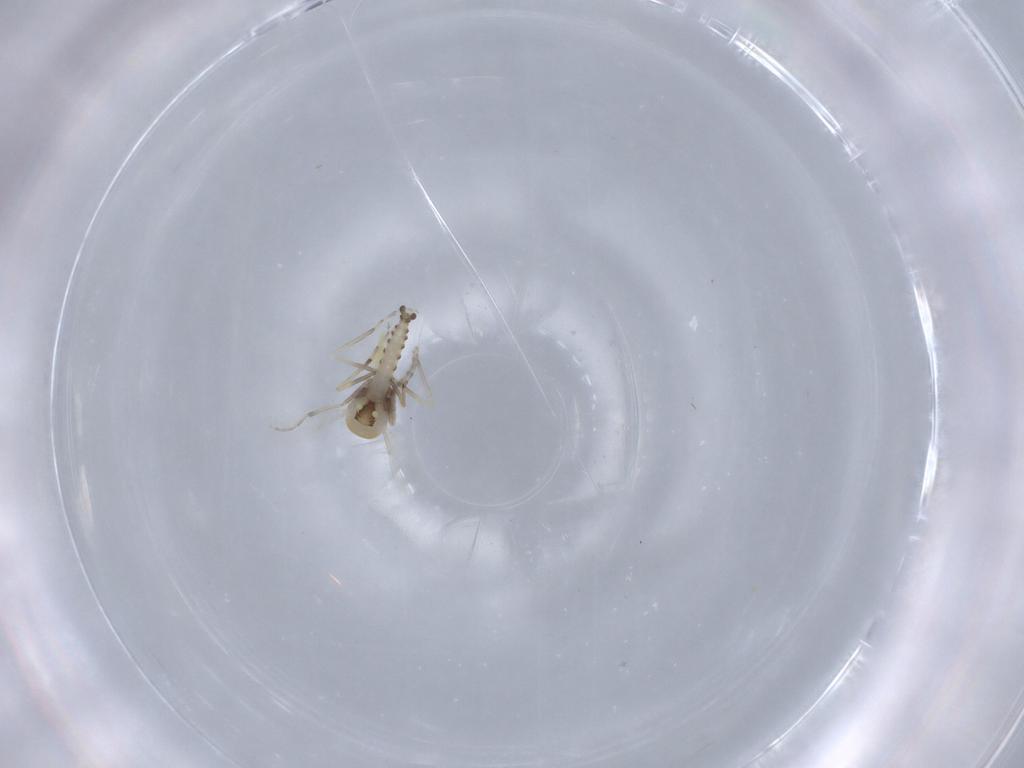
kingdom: Animalia
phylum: Arthropoda
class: Insecta
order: Diptera
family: Ceratopogonidae
